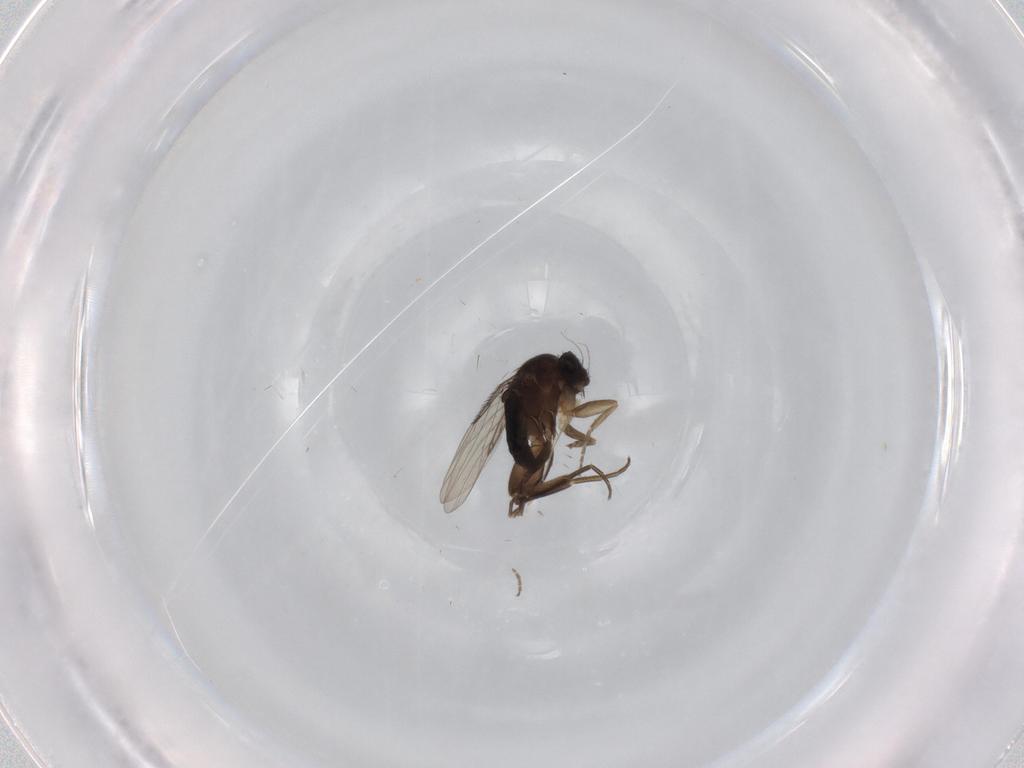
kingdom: Animalia
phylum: Arthropoda
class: Insecta
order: Diptera
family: Phoridae
